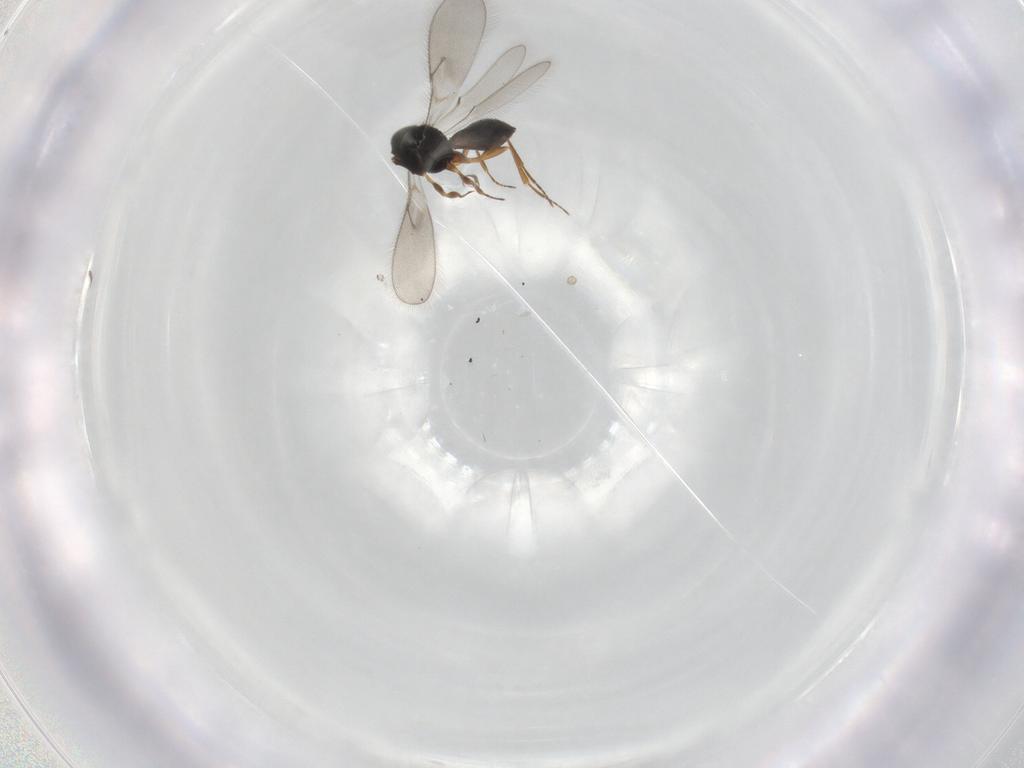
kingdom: Animalia
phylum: Arthropoda
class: Insecta
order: Hymenoptera
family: Scelionidae
